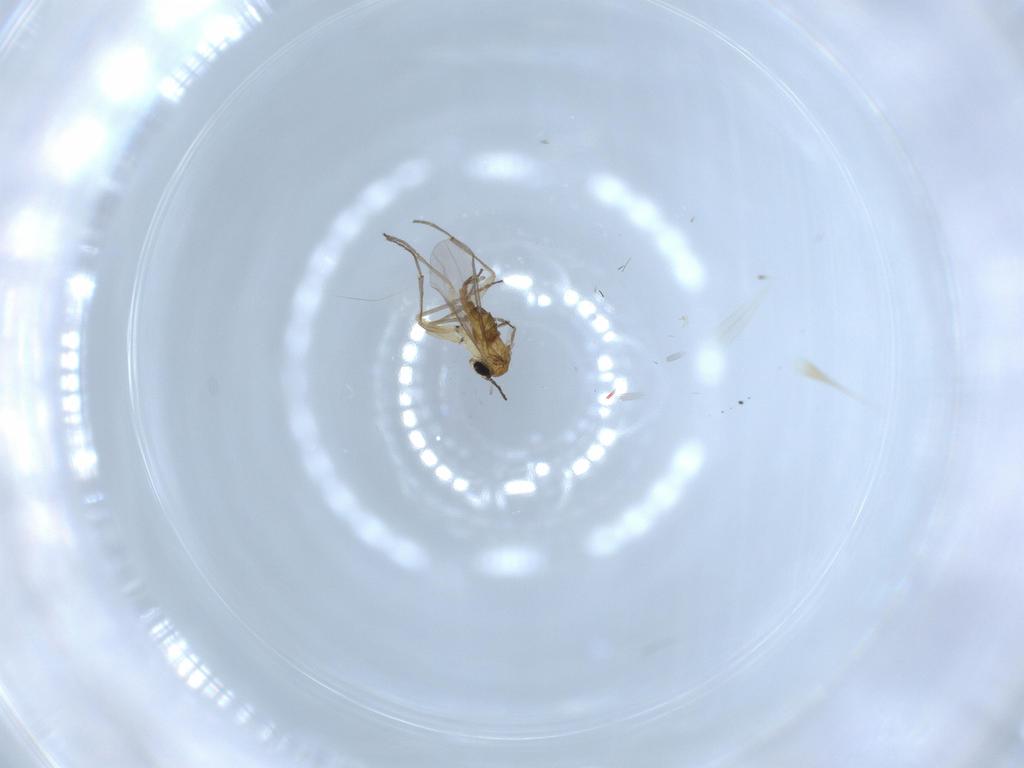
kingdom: Animalia
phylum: Arthropoda
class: Insecta
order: Diptera
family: Sciaridae
